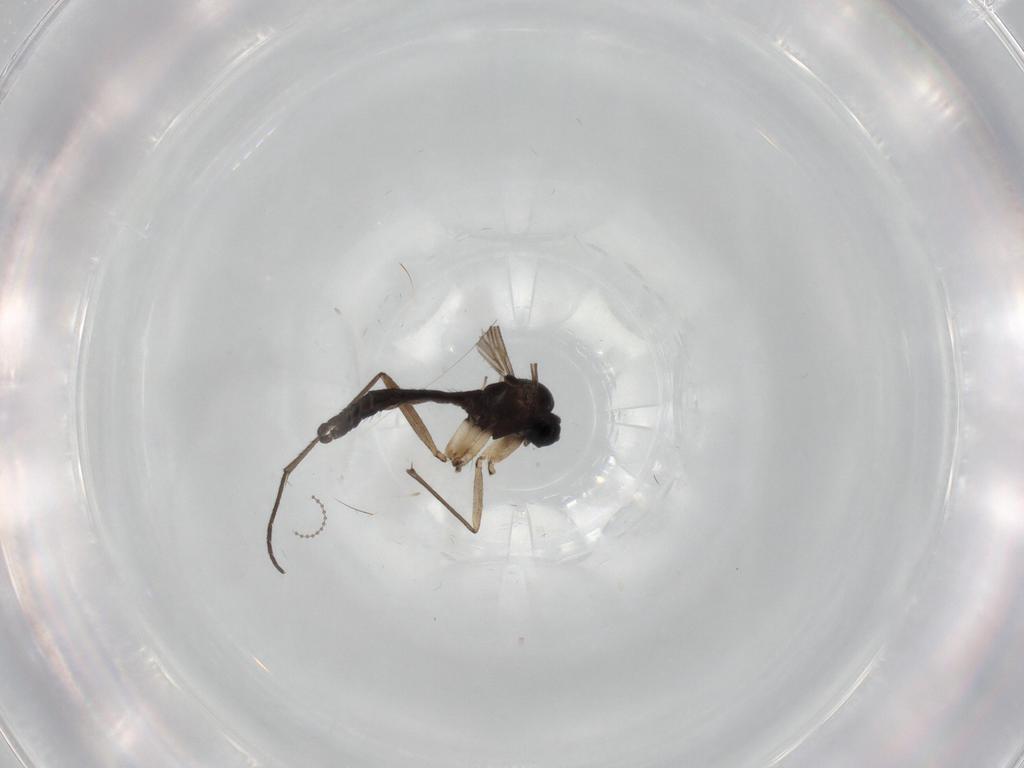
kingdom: Animalia
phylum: Arthropoda
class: Insecta
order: Diptera
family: Sciaridae
